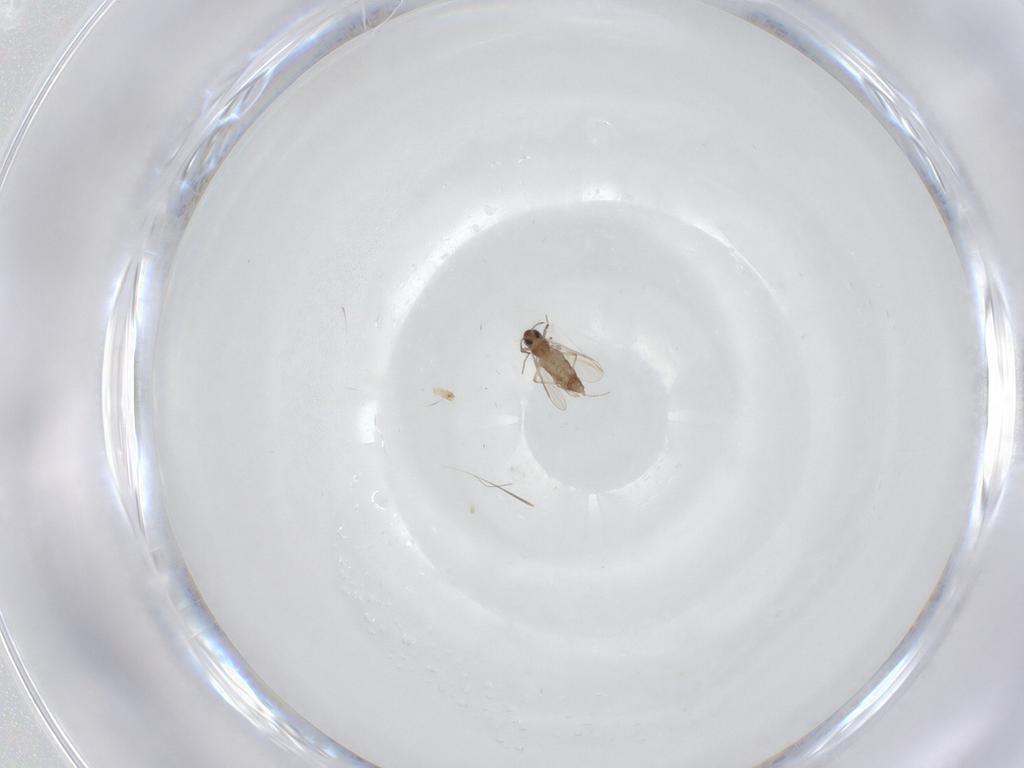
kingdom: Animalia
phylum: Arthropoda
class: Insecta
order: Diptera
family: Chironomidae
